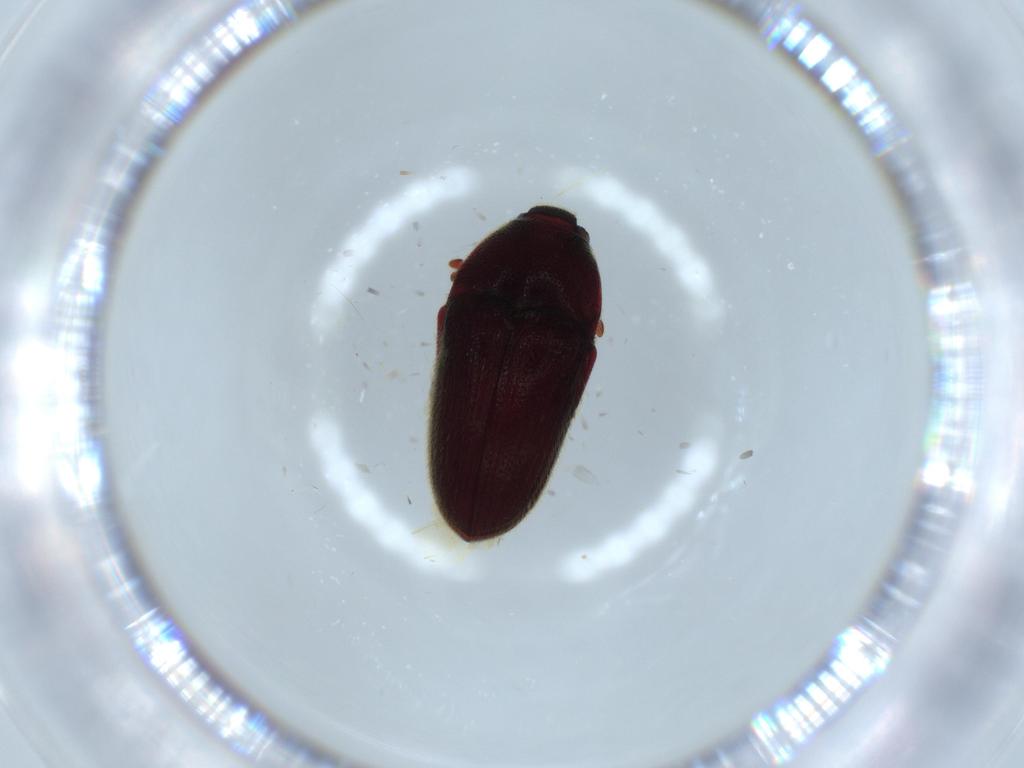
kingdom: Animalia
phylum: Arthropoda
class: Insecta
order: Coleoptera
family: Throscidae
